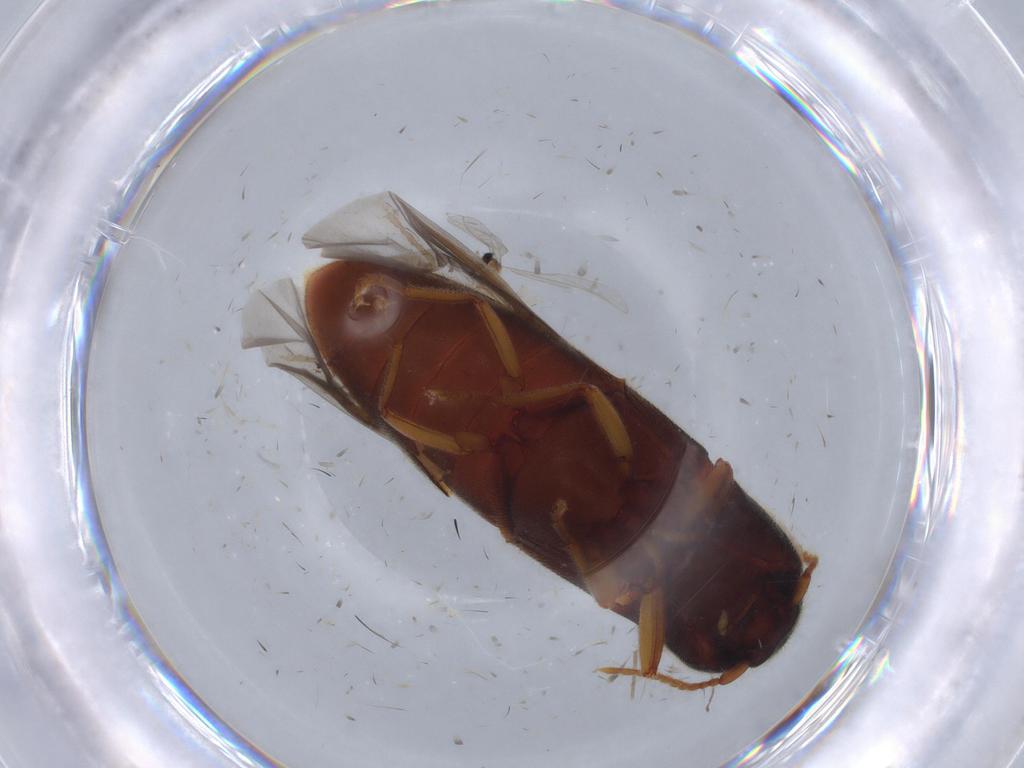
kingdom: Animalia
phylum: Arthropoda
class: Insecta
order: Coleoptera
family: Elateridae
